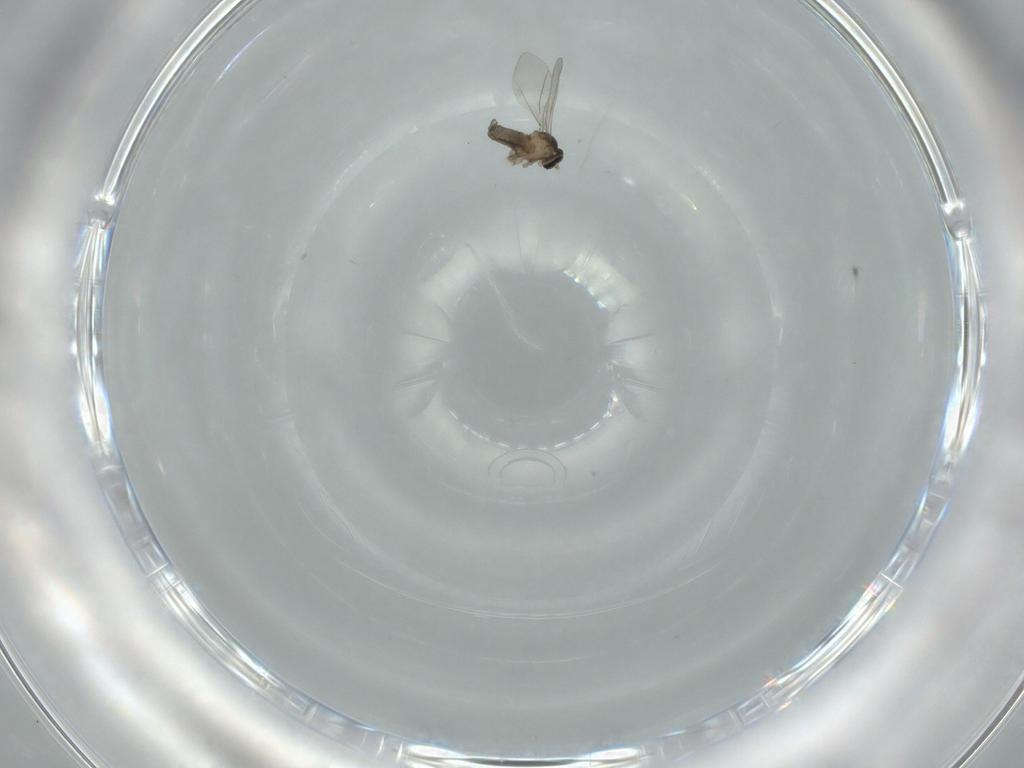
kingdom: Animalia
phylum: Arthropoda
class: Insecta
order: Diptera
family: Cecidomyiidae
